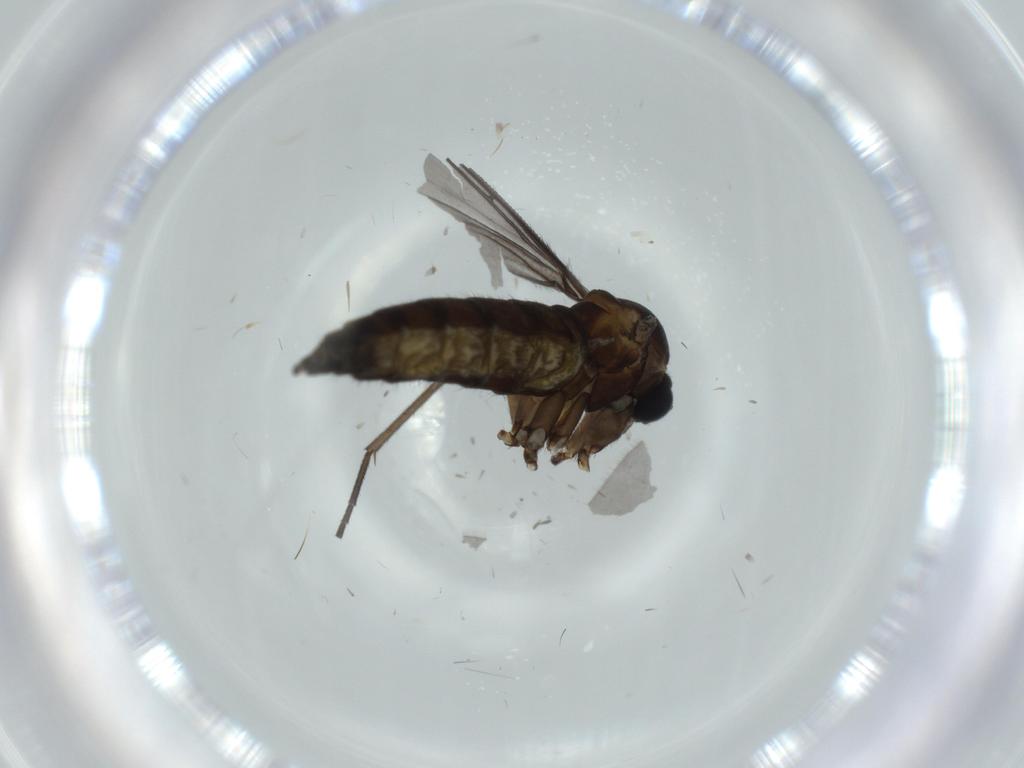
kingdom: Animalia
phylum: Arthropoda
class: Insecta
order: Diptera
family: Sciaridae
